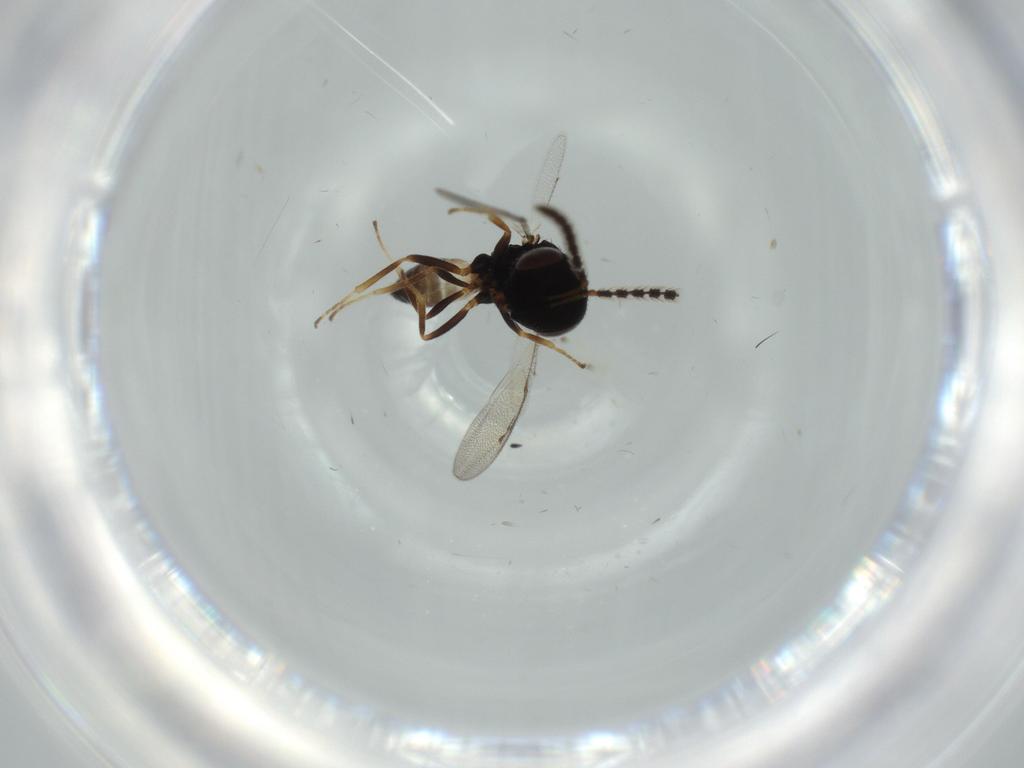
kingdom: Animalia
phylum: Arthropoda
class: Insecta
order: Hymenoptera
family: Pteromalidae
